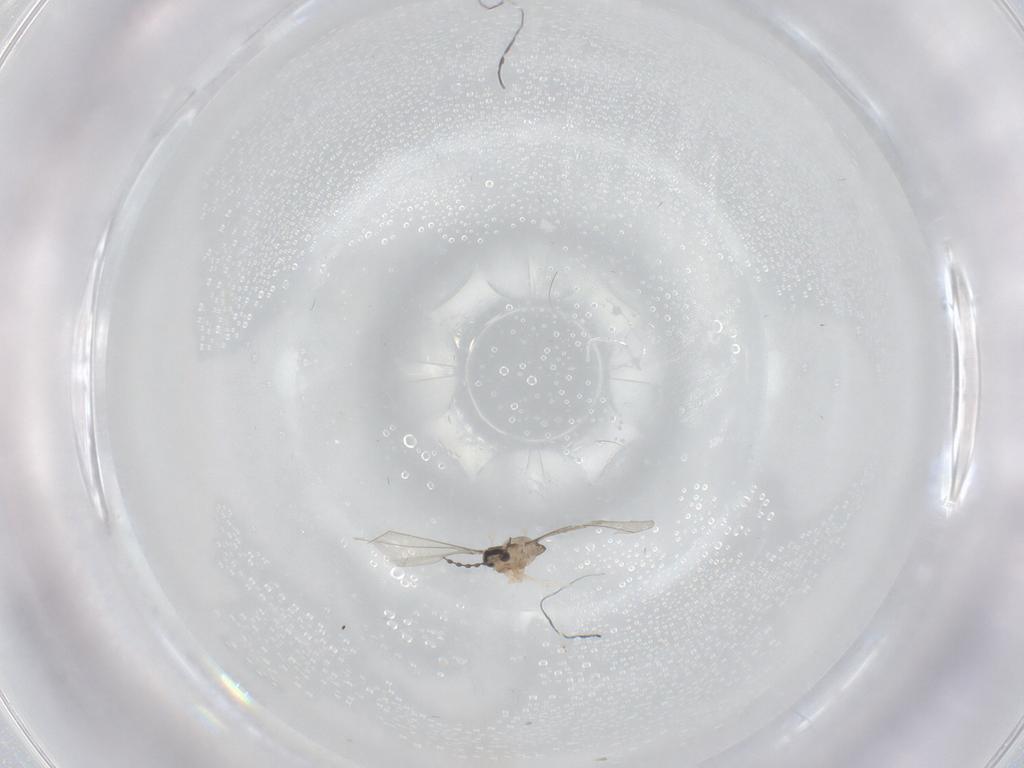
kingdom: Animalia
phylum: Arthropoda
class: Insecta
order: Diptera
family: Cecidomyiidae
